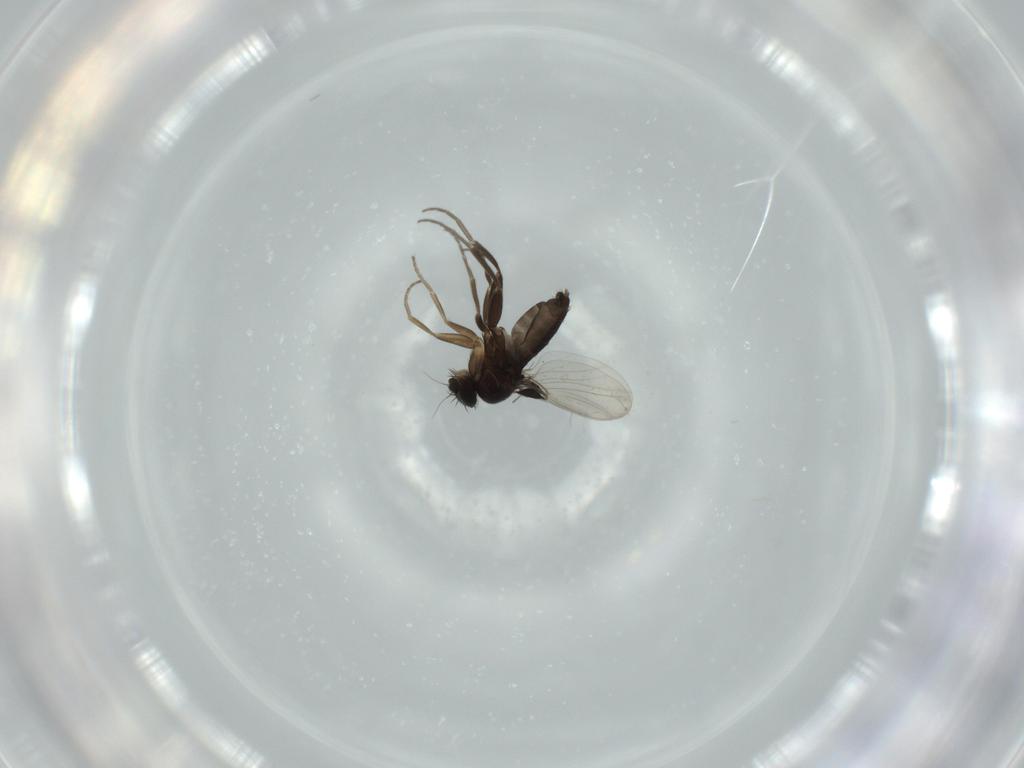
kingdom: Animalia
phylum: Arthropoda
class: Insecta
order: Diptera
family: Phoridae
